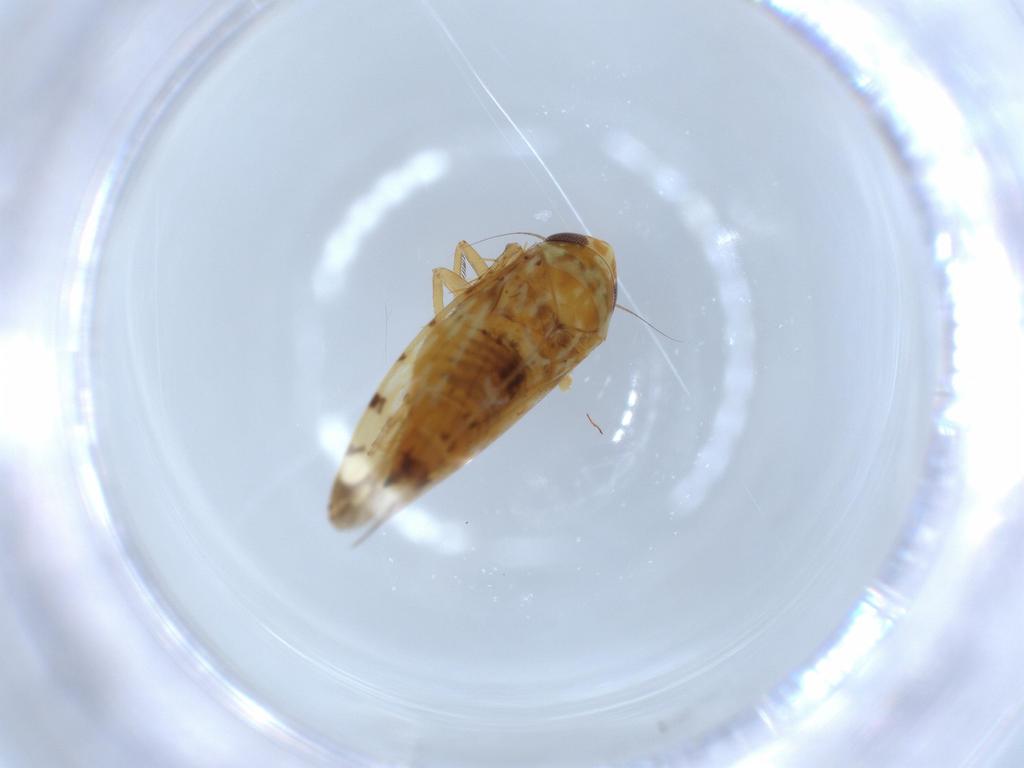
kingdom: Animalia
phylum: Arthropoda
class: Insecta
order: Hemiptera
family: Cicadellidae
